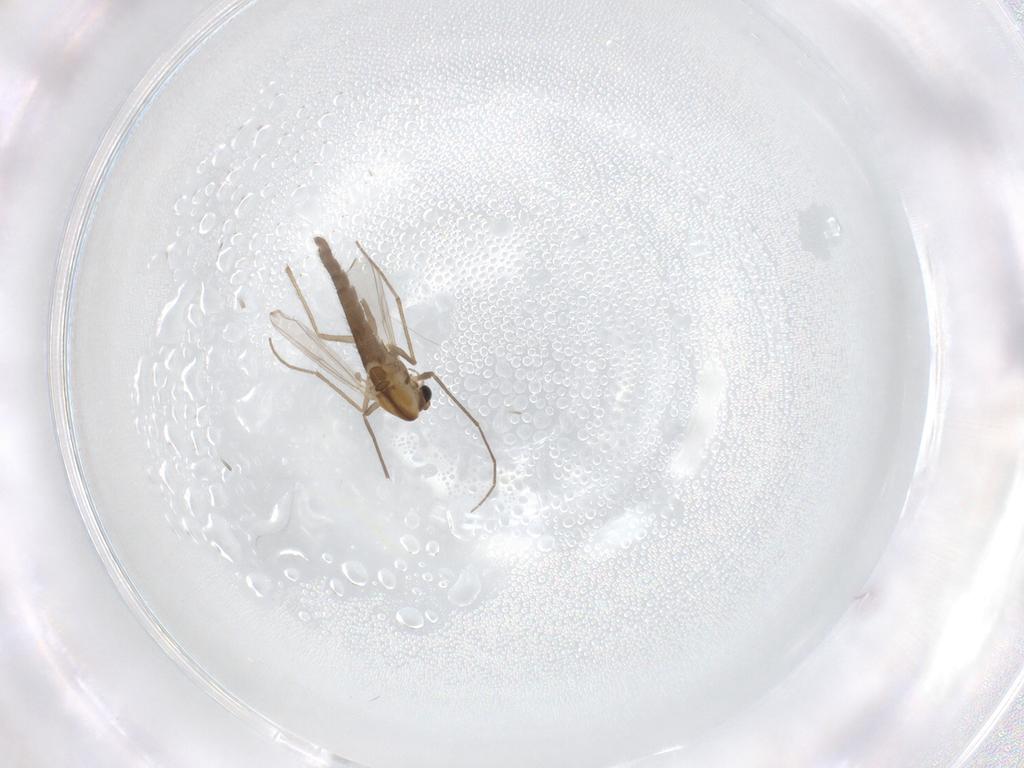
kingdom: Animalia
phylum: Arthropoda
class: Insecta
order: Diptera
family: Chironomidae
